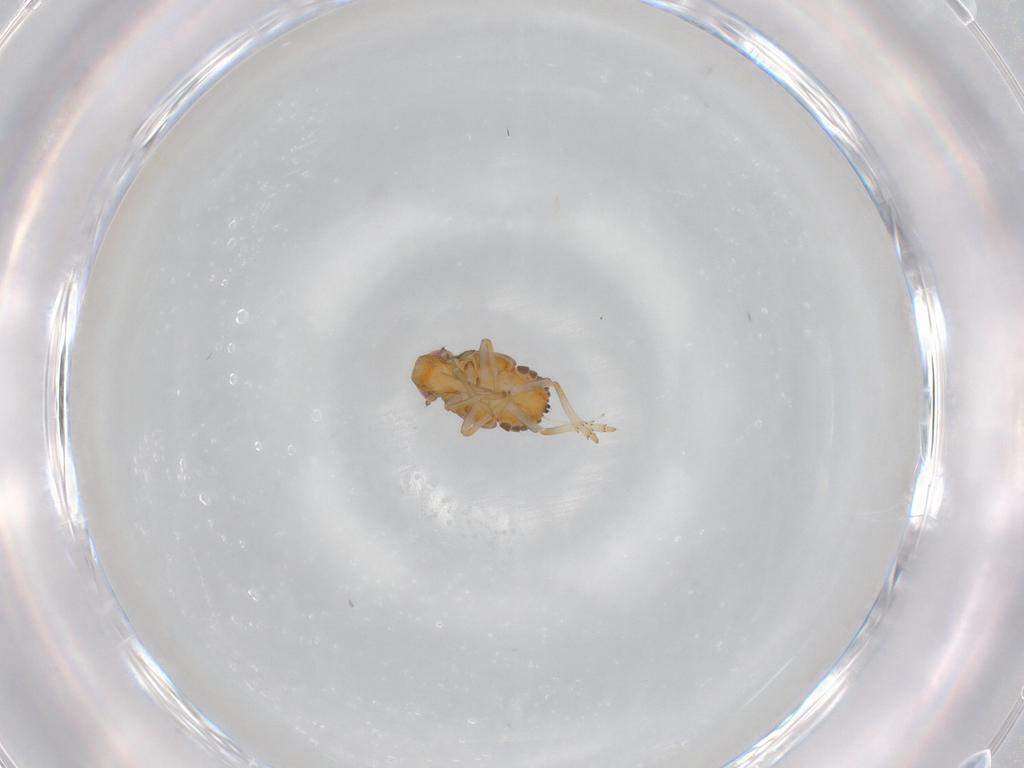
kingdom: Animalia
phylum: Arthropoda
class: Insecta
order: Hemiptera
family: Issidae
